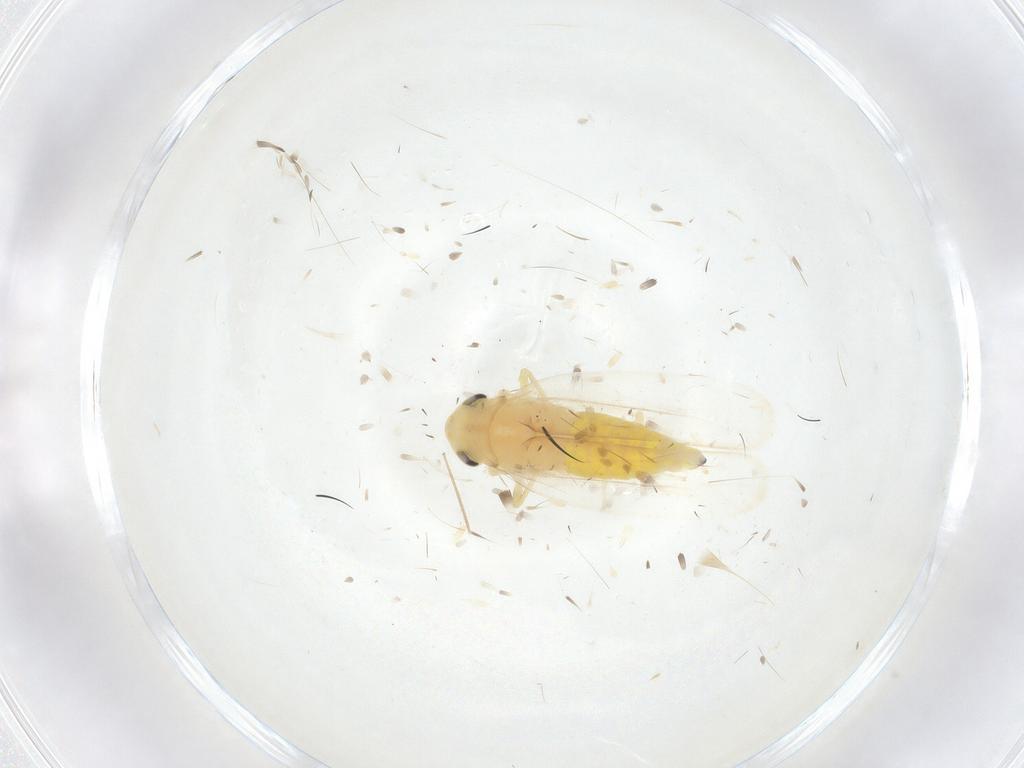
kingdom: Animalia
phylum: Arthropoda
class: Insecta
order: Hemiptera
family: Cicadellidae
